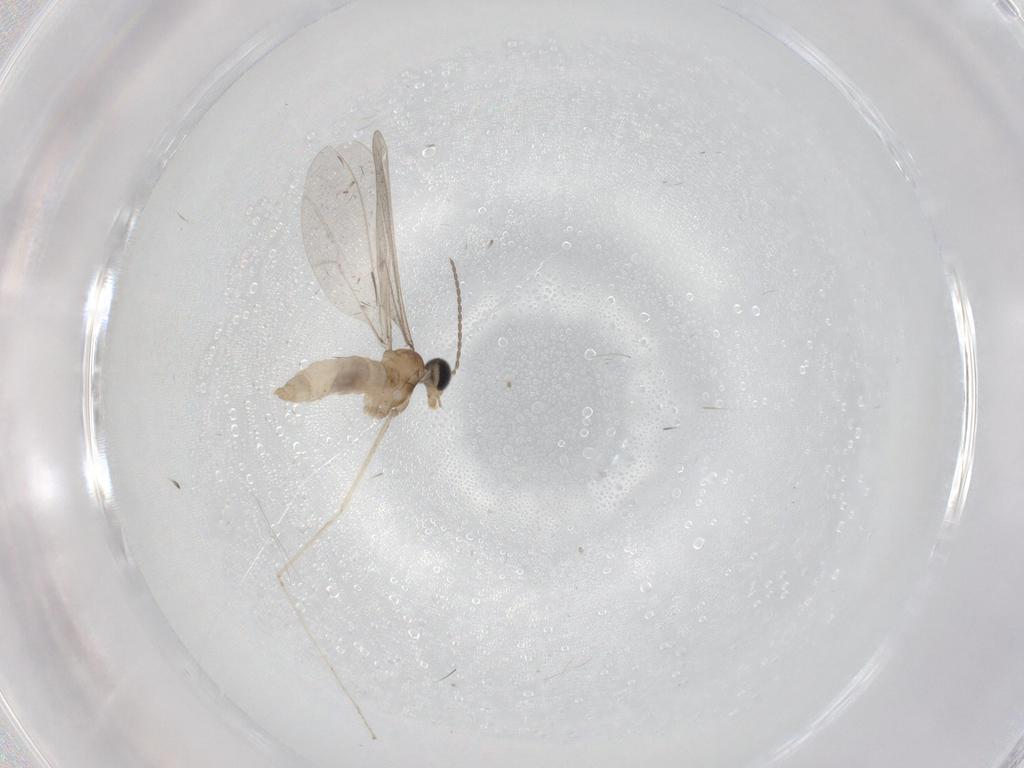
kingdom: Animalia
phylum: Arthropoda
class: Insecta
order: Diptera
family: Cecidomyiidae
